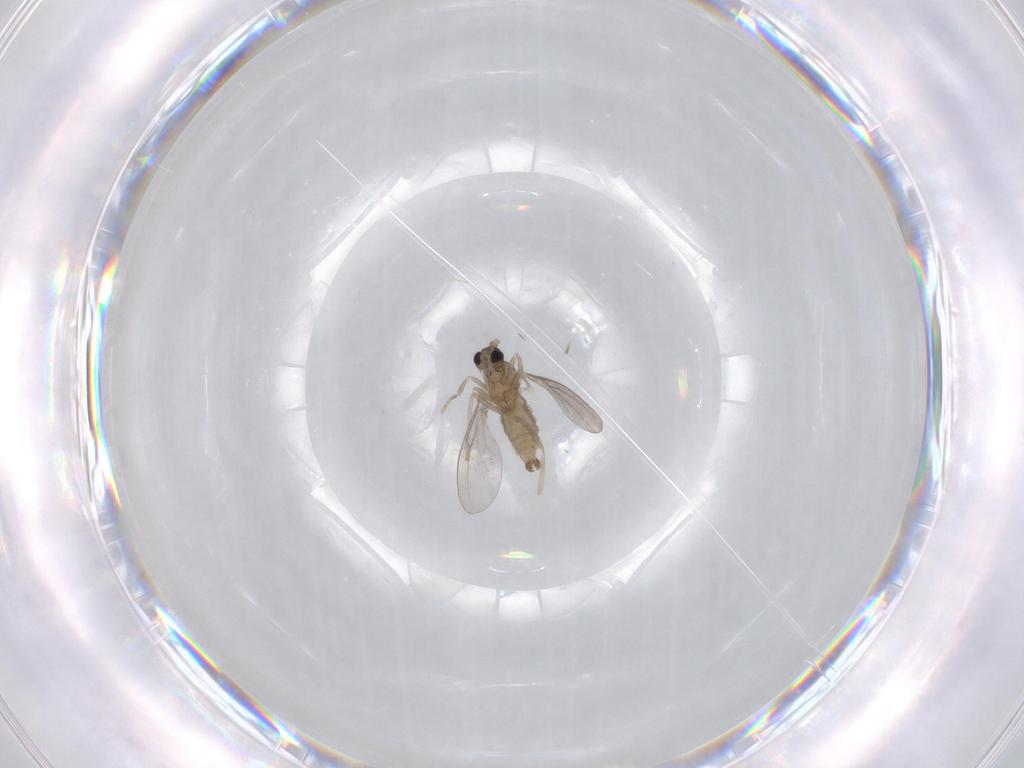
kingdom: Animalia
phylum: Arthropoda
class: Insecta
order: Diptera
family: Cecidomyiidae
